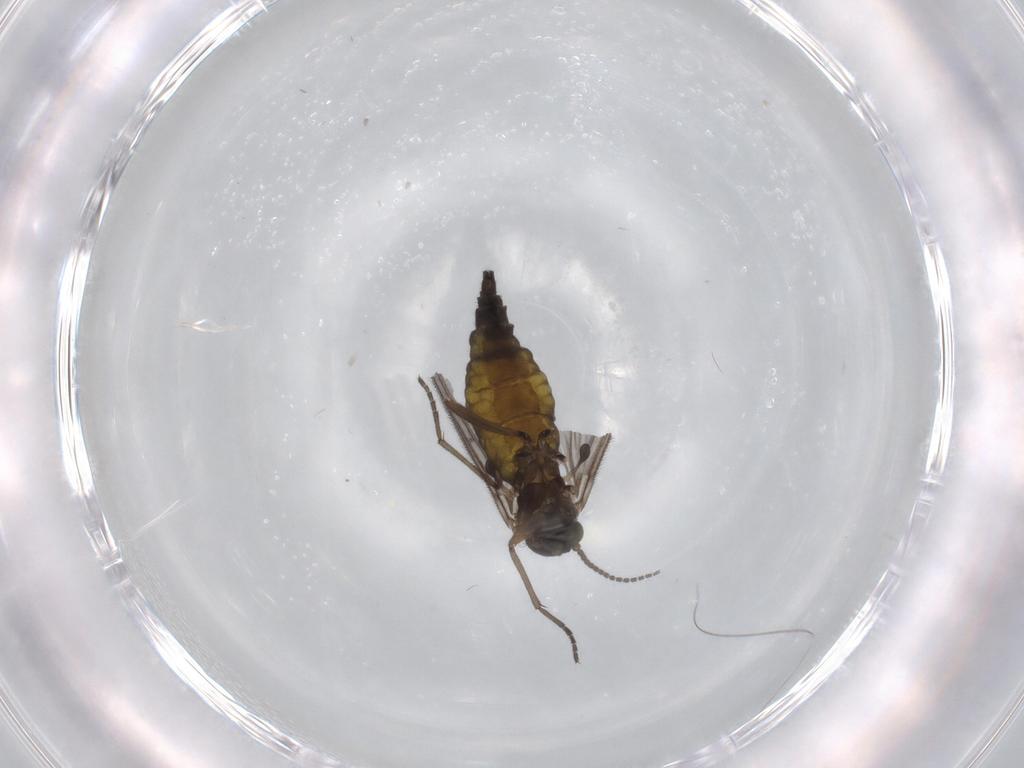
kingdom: Animalia
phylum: Arthropoda
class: Insecta
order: Diptera
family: Sciaridae
